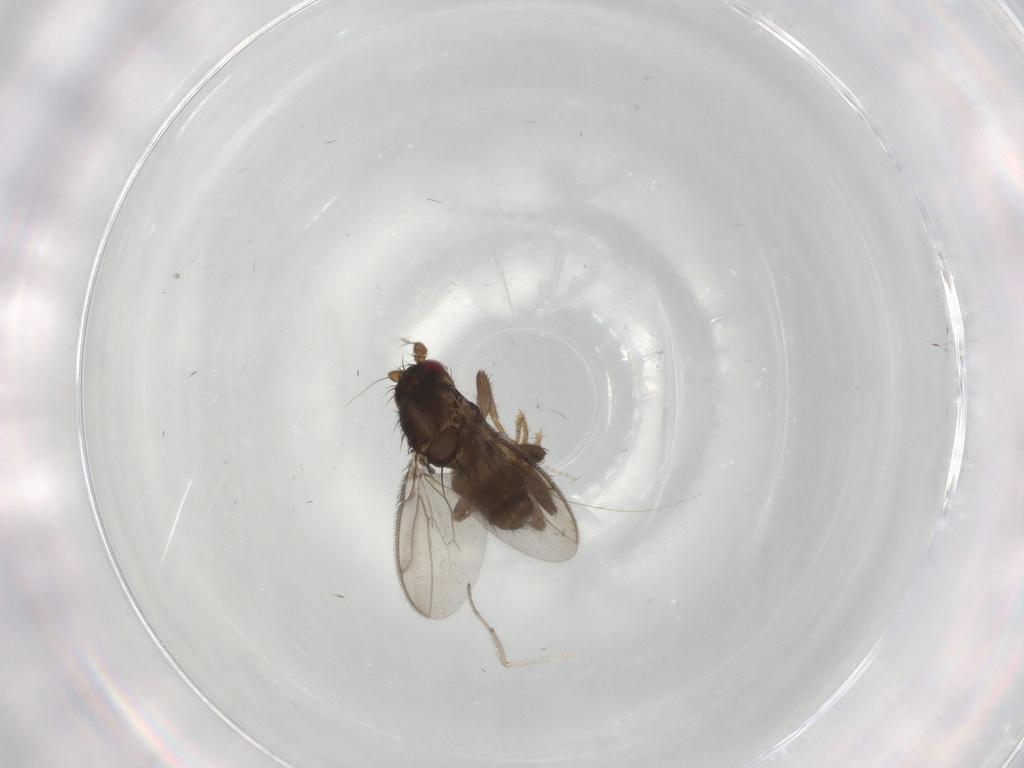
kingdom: Animalia
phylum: Arthropoda
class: Insecta
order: Diptera
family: Sphaeroceridae
